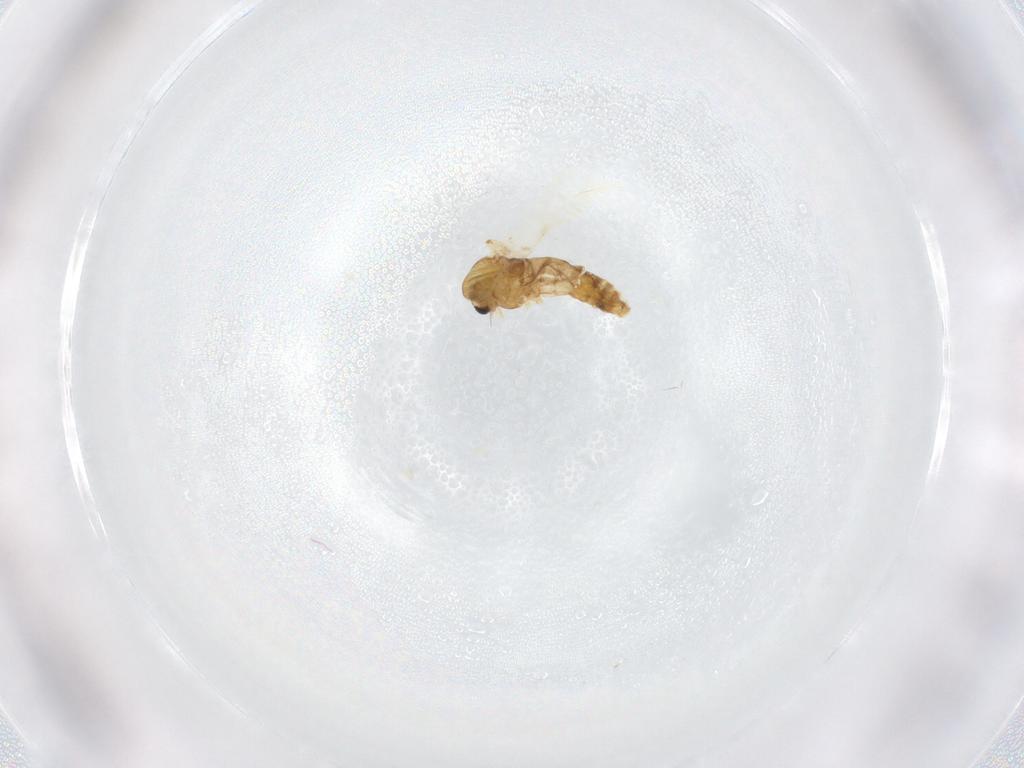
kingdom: Animalia
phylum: Arthropoda
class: Insecta
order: Diptera
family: Chironomidae
